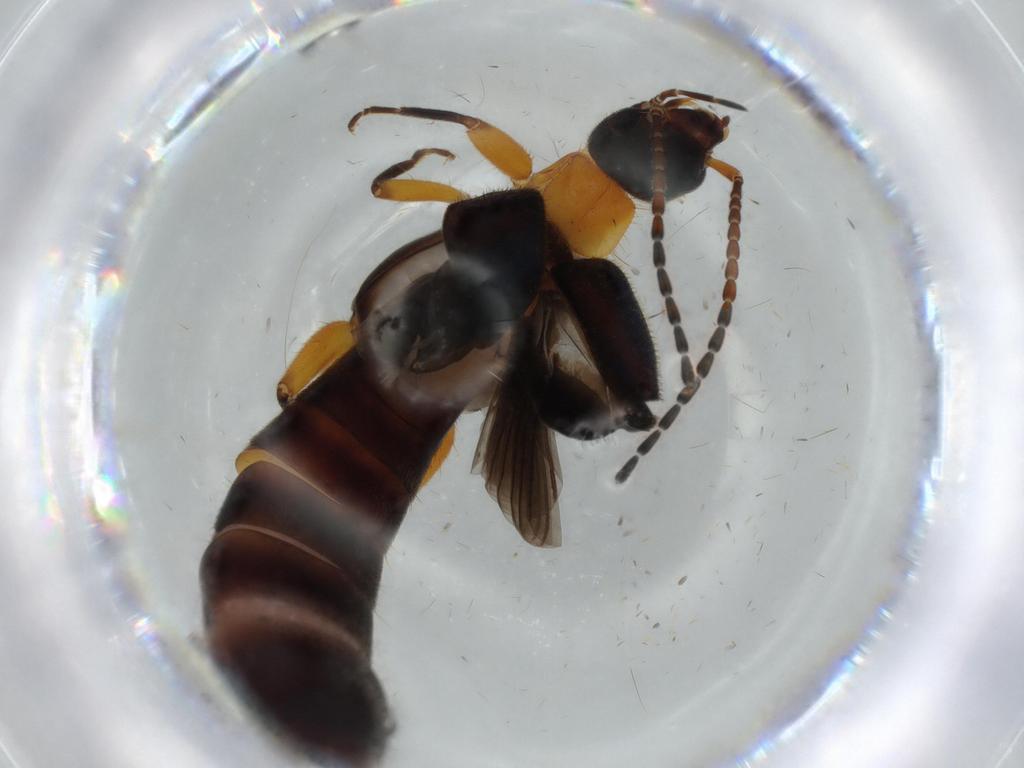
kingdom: Animalia
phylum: Arthropoda
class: Insecta
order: Dermaptera
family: Forficulidae
